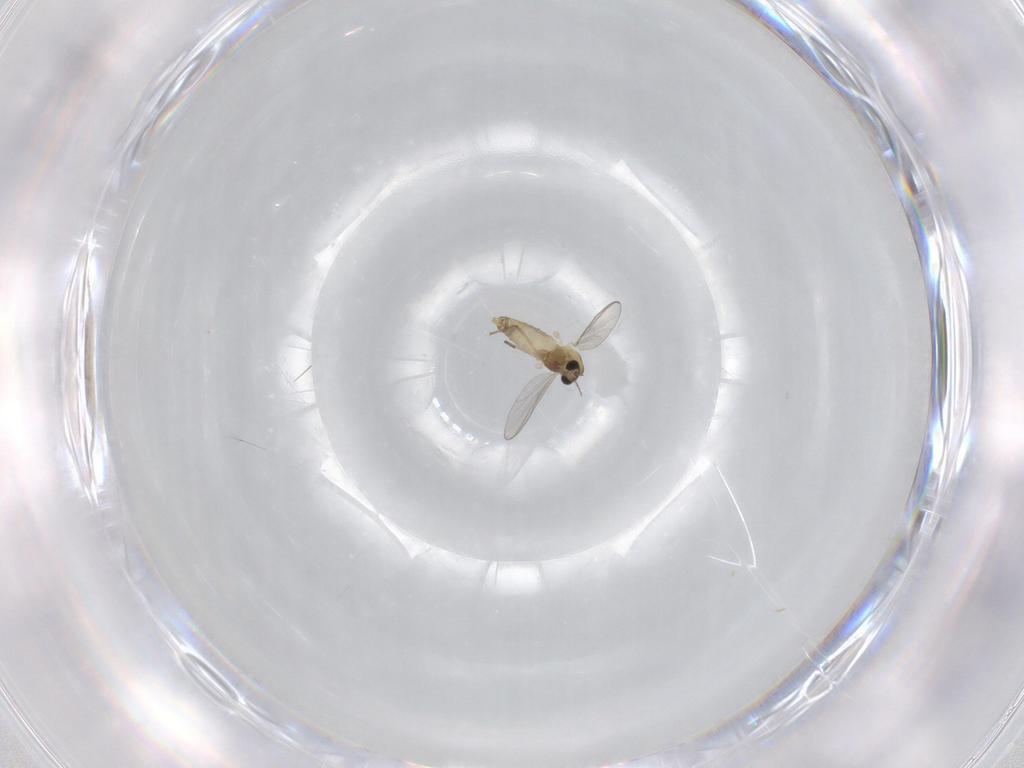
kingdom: Animalia
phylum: Arthropoda
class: Insecta
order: Diptera
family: Chironomidae
